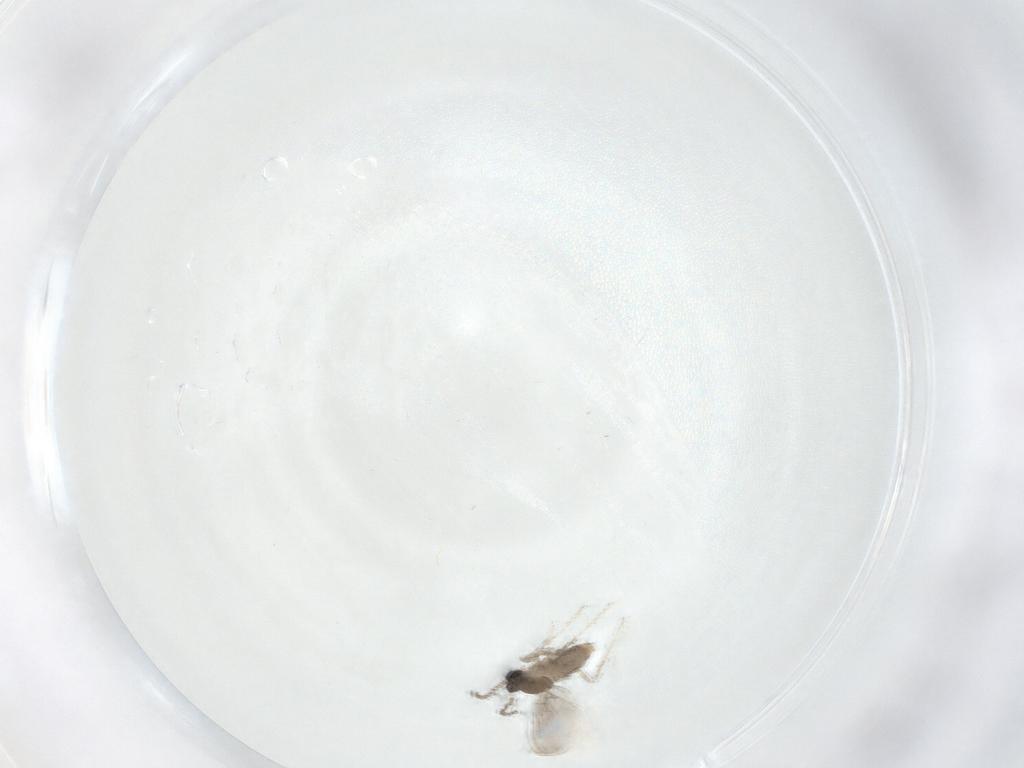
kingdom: Animalia
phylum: Arthropoda
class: Insecta
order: Diptera
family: Cecidomyiidae
